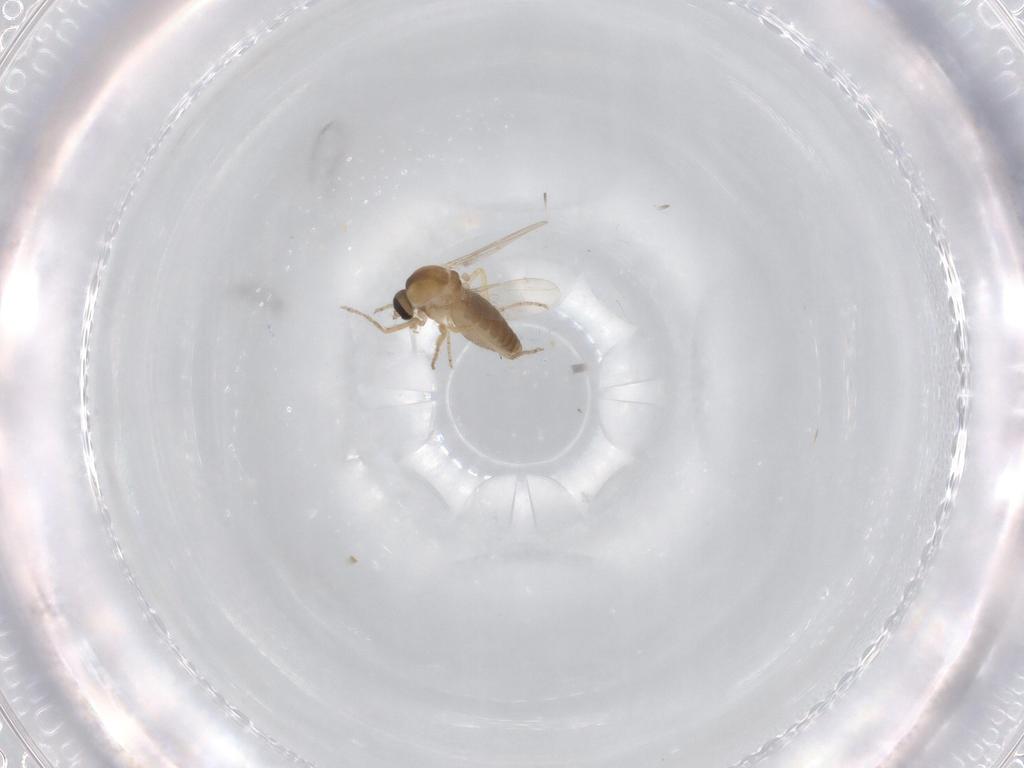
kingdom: Animalia
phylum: Arthropoda
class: Insecta
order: Diptera
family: Ceratopogonidae
